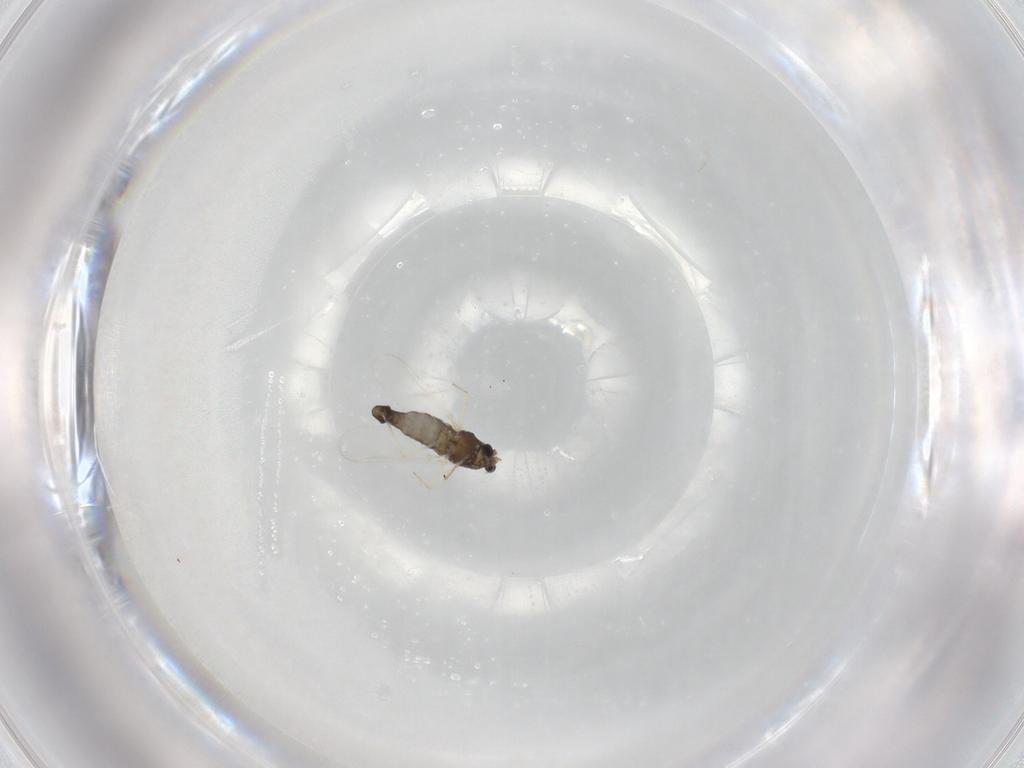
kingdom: Animalia
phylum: Arthropoda
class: Insecta
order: Diptera
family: Chironomidae
